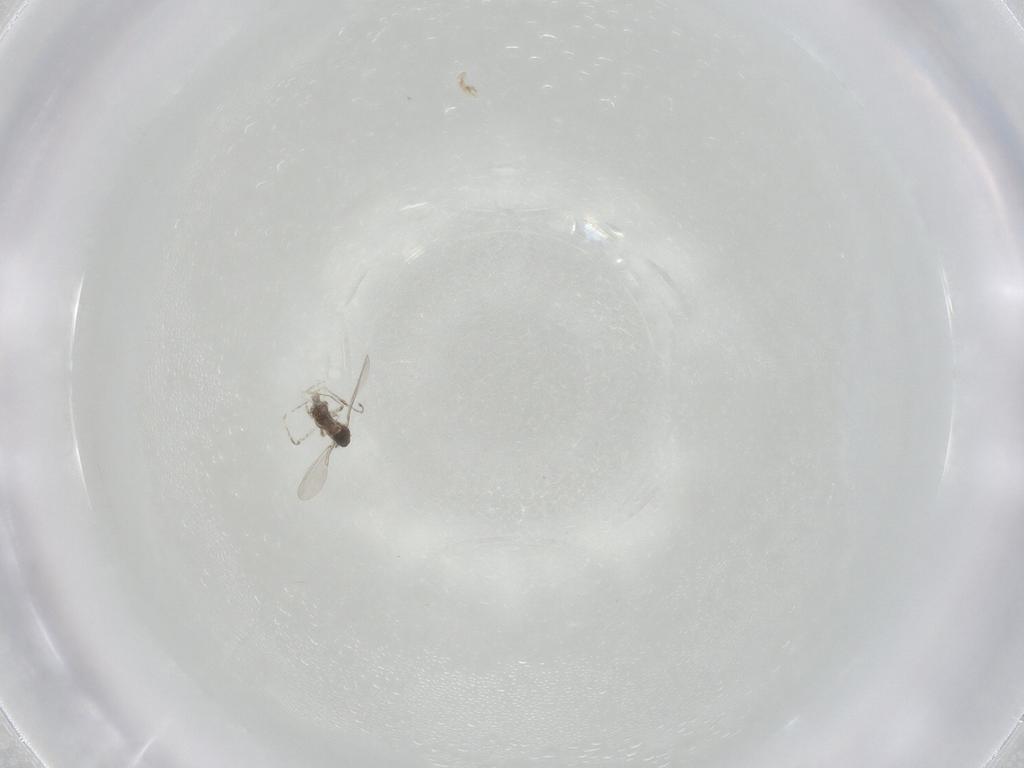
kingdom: Animalia
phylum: Arthropoda
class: Insecta
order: Diptera
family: Cecidomyiidae
